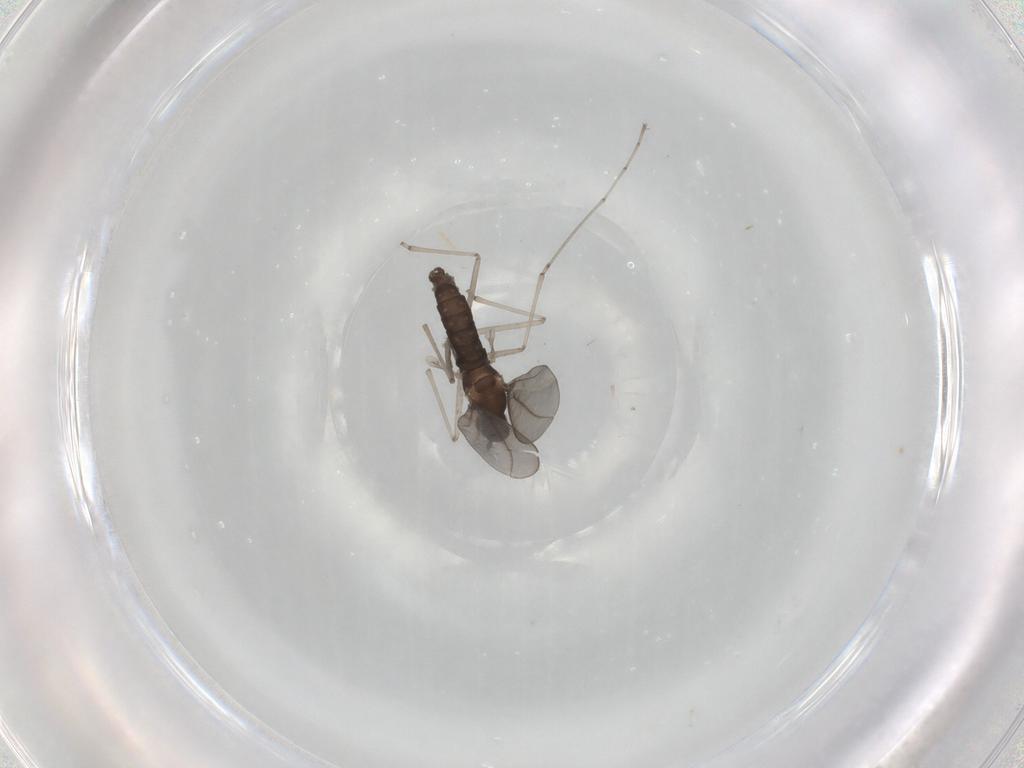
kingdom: Animalia
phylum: Arthropoda
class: Insecta
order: Diptera
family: Cecidomyiidae
